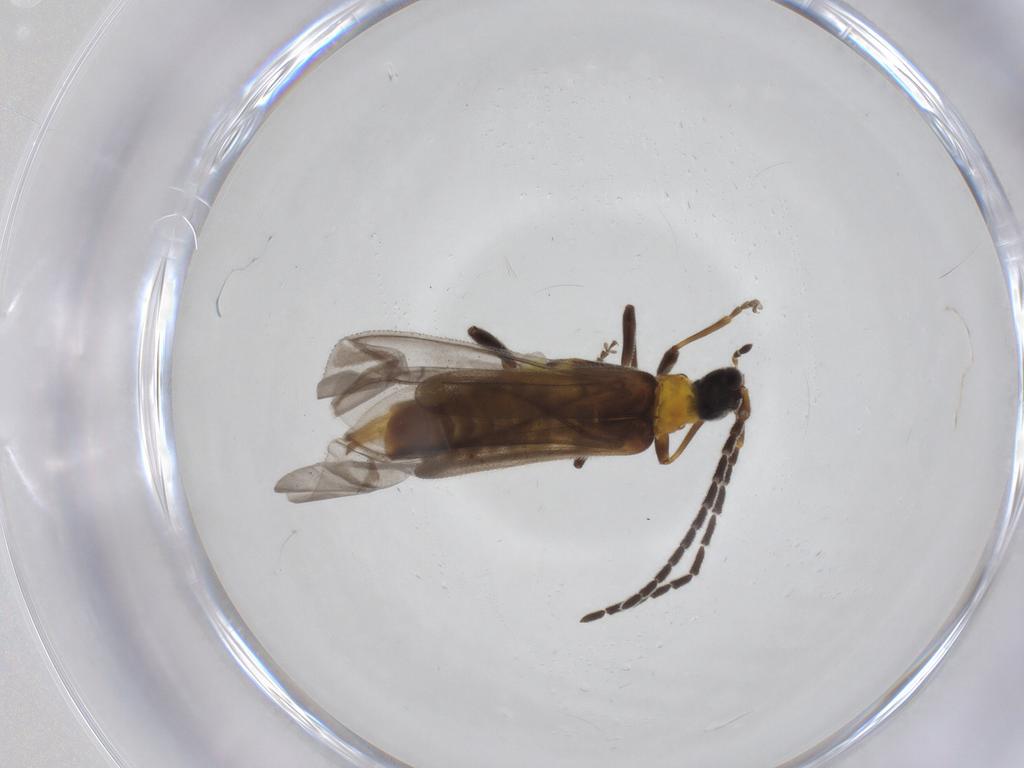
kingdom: Animalia
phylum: Arthropoda
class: Insecta
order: Coleoptera
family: Cantharidae
